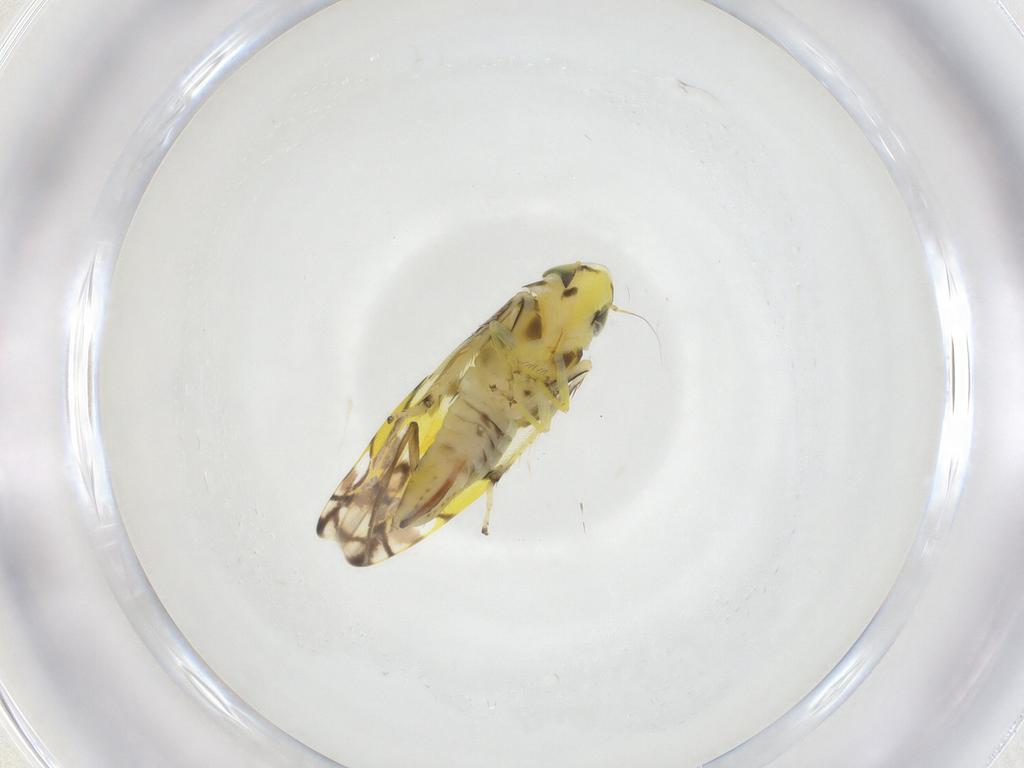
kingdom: Animalia
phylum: Arthropoda
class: Insecta
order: Hemiptera
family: Cicadellidae
